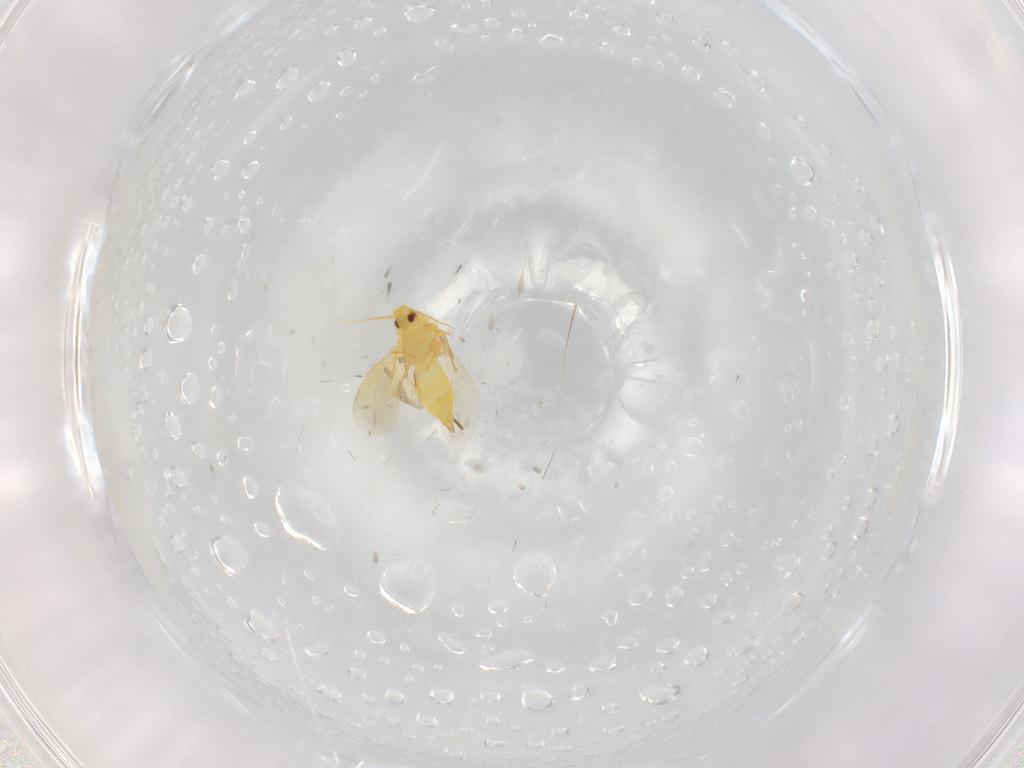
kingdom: Animalia
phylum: Arthropoda
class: Insecta
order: Hemiptera
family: Aleyrodidae
